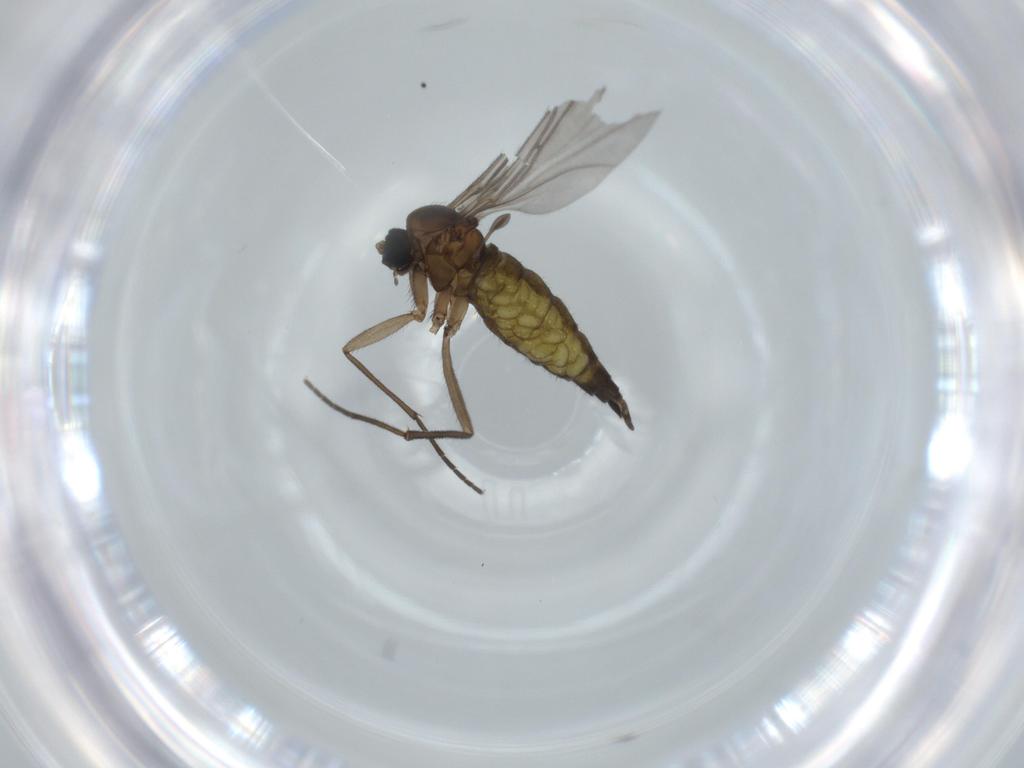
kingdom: Animalia
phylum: Arthropoda
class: Insecta
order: Diptera
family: Sciaridae
